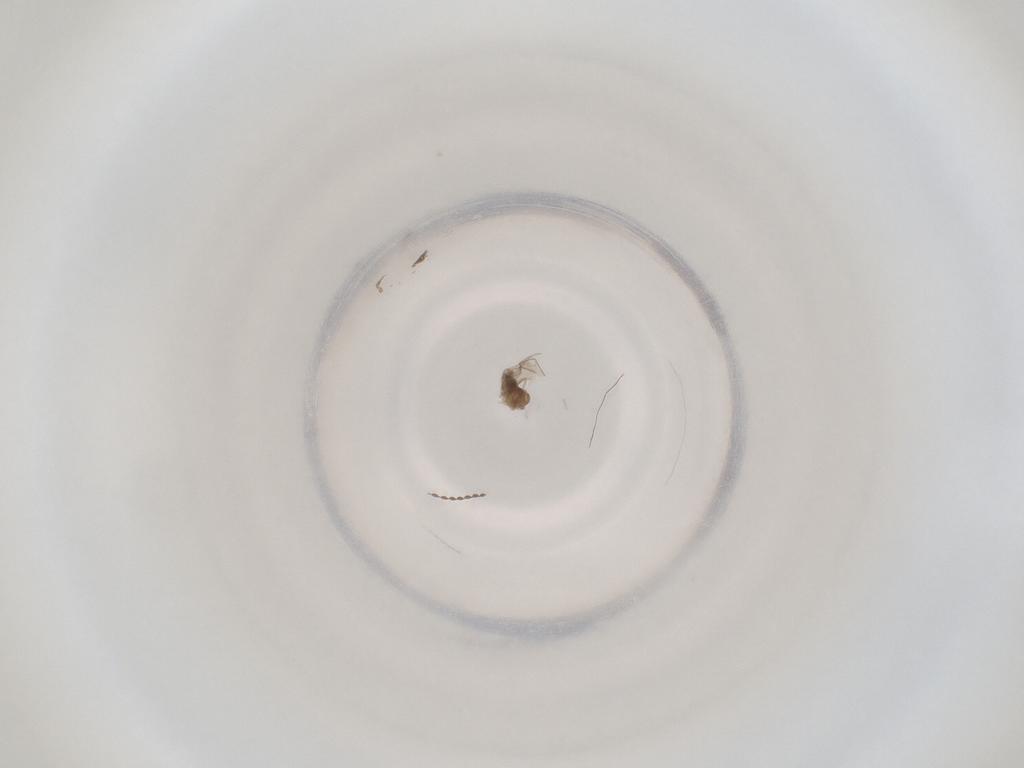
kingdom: Animalia
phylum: Arthropoda
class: Insecta
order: Diptera
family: Cecidomyiidae
